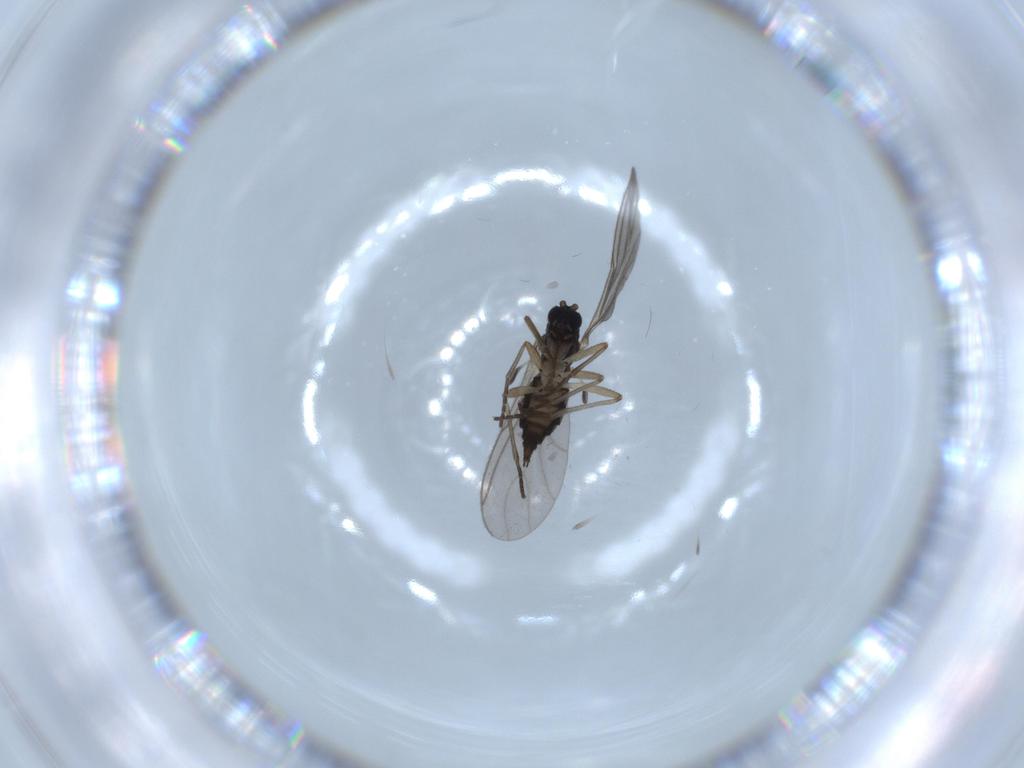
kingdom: Animalia
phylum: Arthropoda
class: Insecta
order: Diptera
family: Sciaridae
